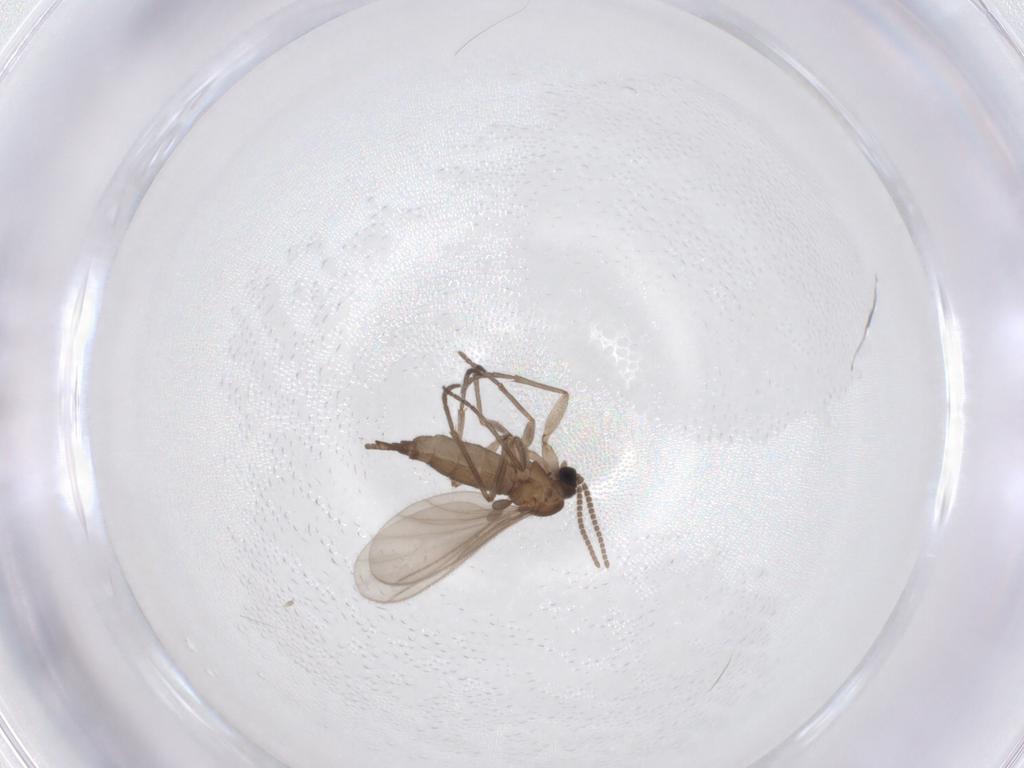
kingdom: Animalia
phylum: Arthropoda
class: Insecta
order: Diptera
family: Sciaridae
